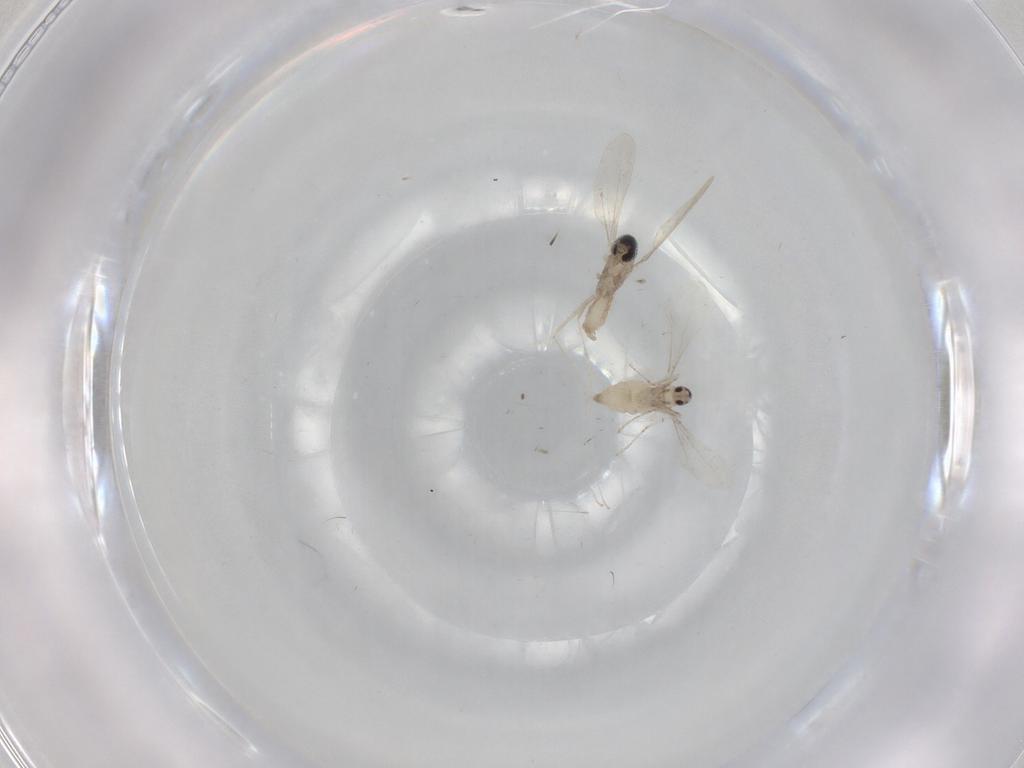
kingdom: Animalia
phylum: Arthropoda
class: Insecta
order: Diptera
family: Cecidomyiidae
